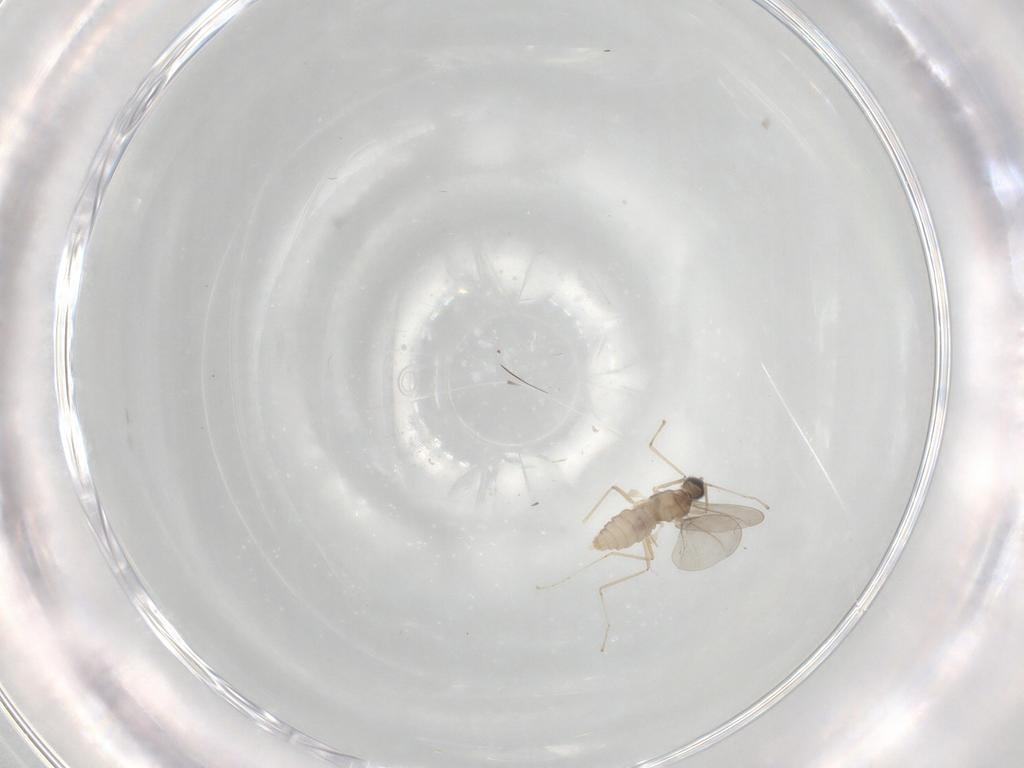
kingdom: Animalia
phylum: Arthropoda
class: Insecta
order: Diptera
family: Cecidomyiidae
